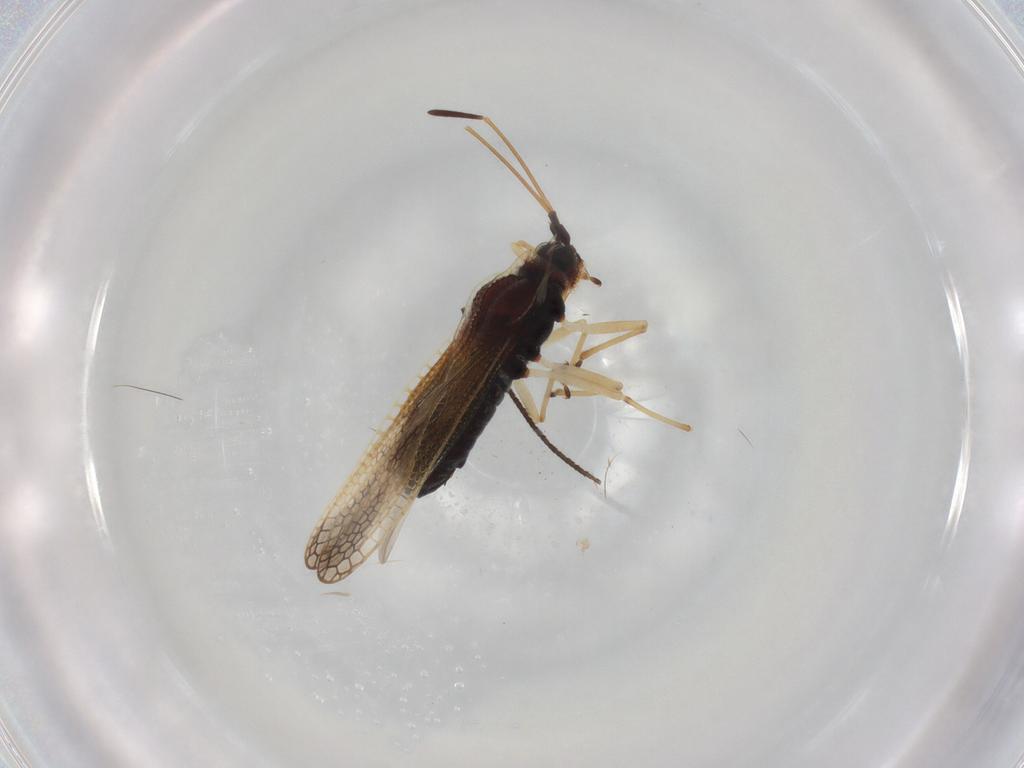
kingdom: Animalia
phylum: Arthropoda
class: Insecta
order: Hemiptera
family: Tingidae
